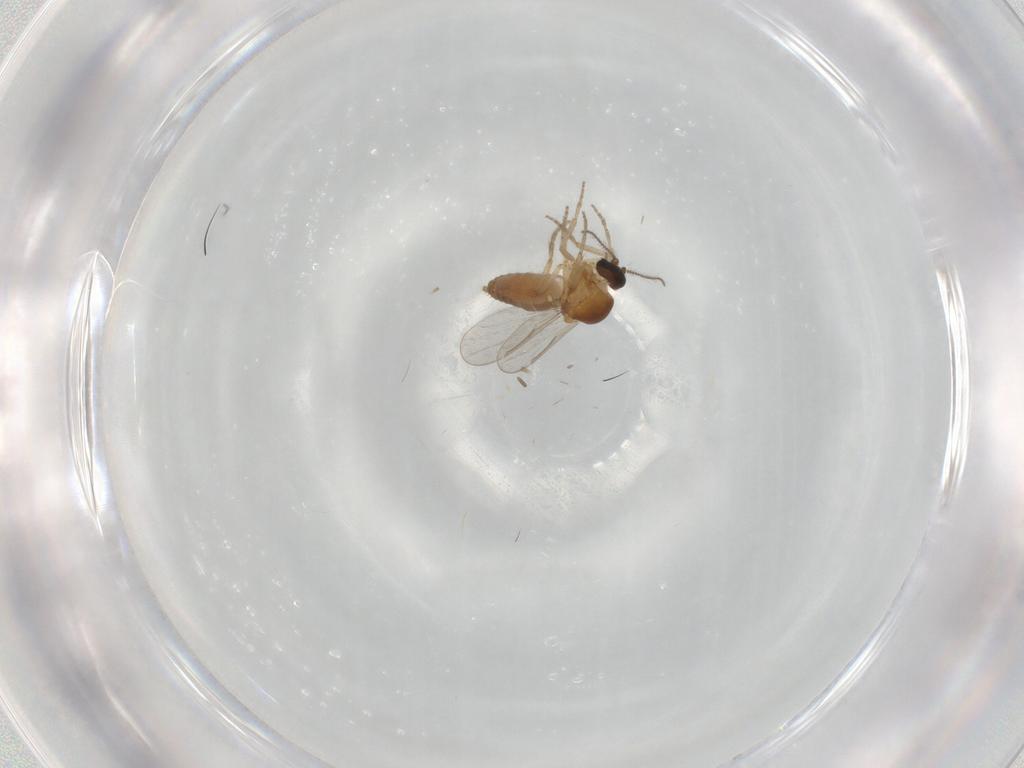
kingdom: Animalia
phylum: Arthropoda
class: Insecta
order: Diptera
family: Ceratopogonidae
